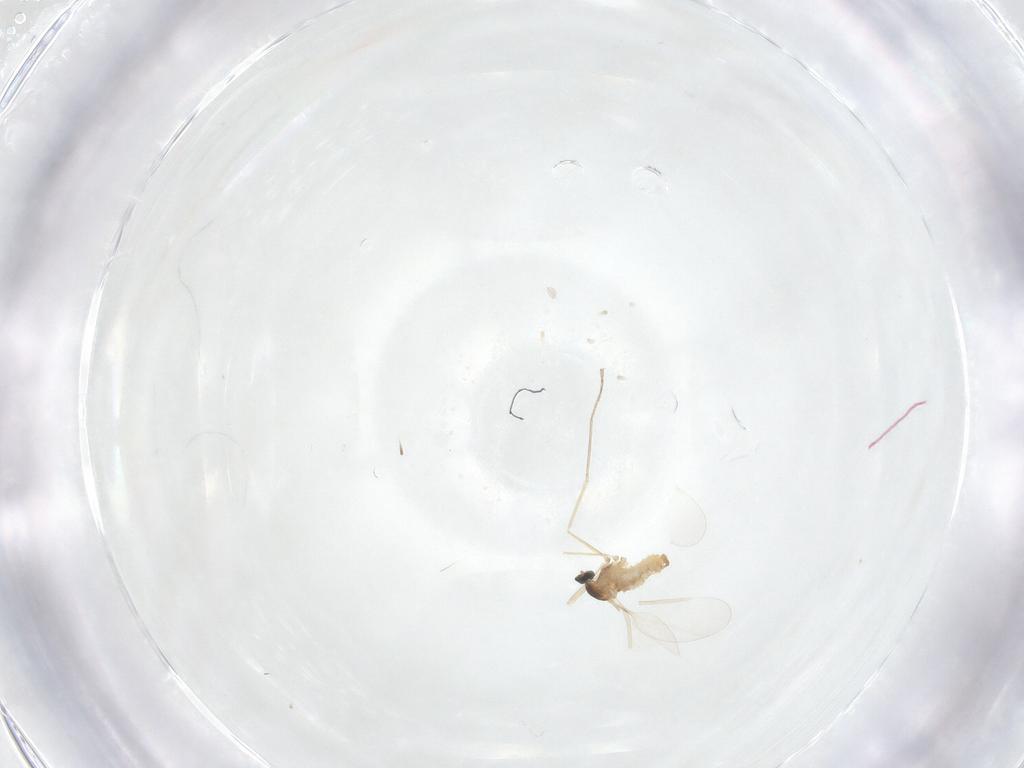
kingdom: Animalia
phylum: Arthropoda
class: Insecta
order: Diptera
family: Cecidomyiidae
